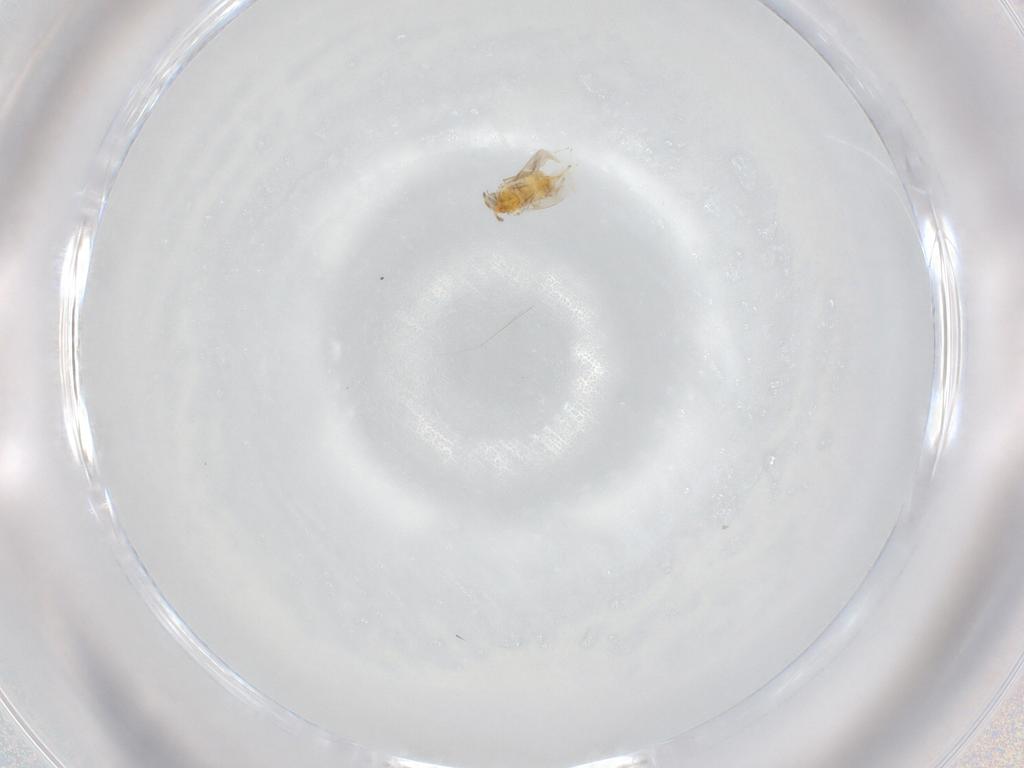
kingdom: Animalia
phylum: Arthropoda
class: Insecta
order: Hymenoptera
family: Aphelinidae
